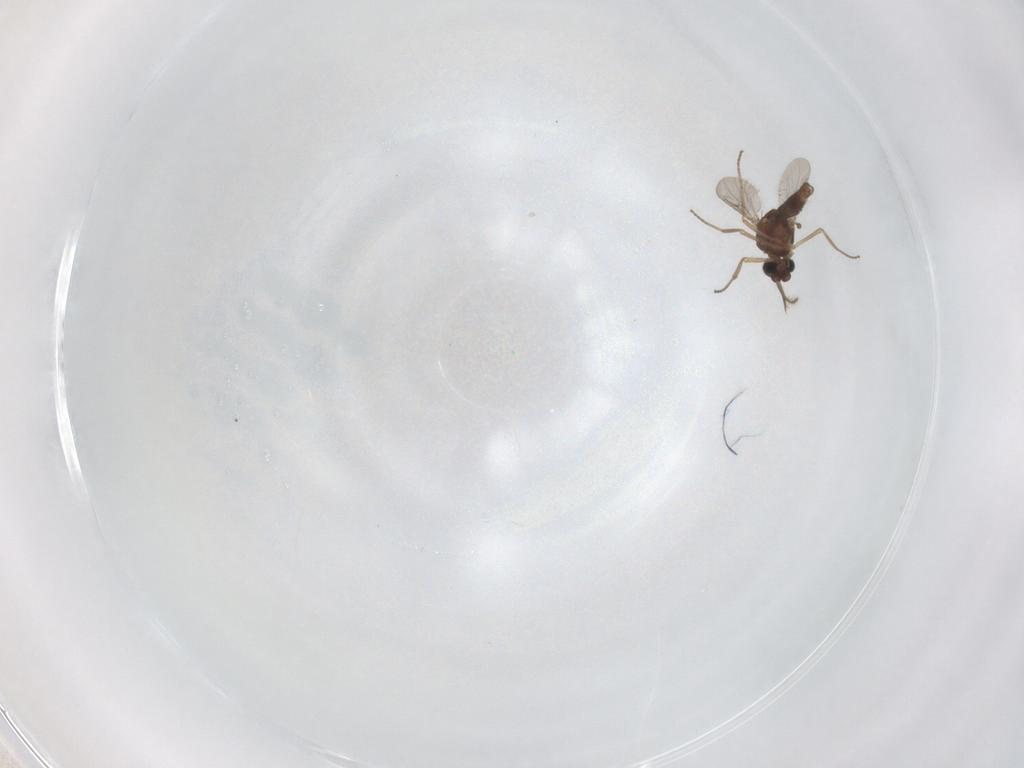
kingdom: Animalia
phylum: Arthropoda
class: Insecta
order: Diptera
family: Ceratopogonidae
